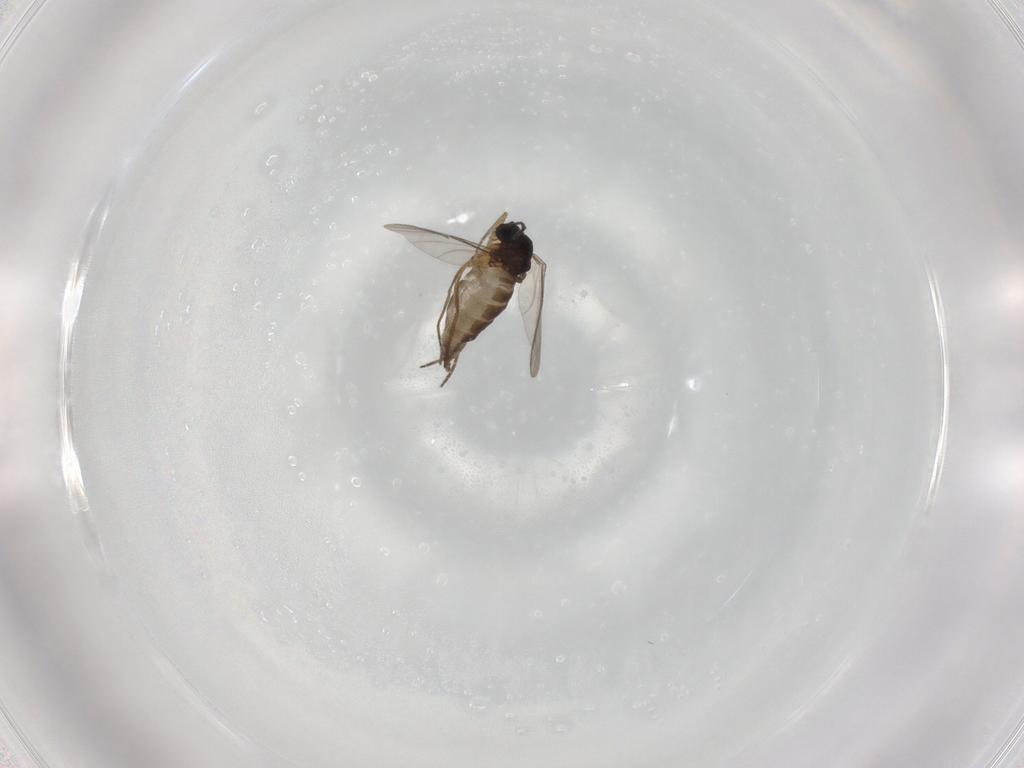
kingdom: Animalia
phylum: Arthropoda
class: Insecta
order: Diptera
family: Sciaridae
